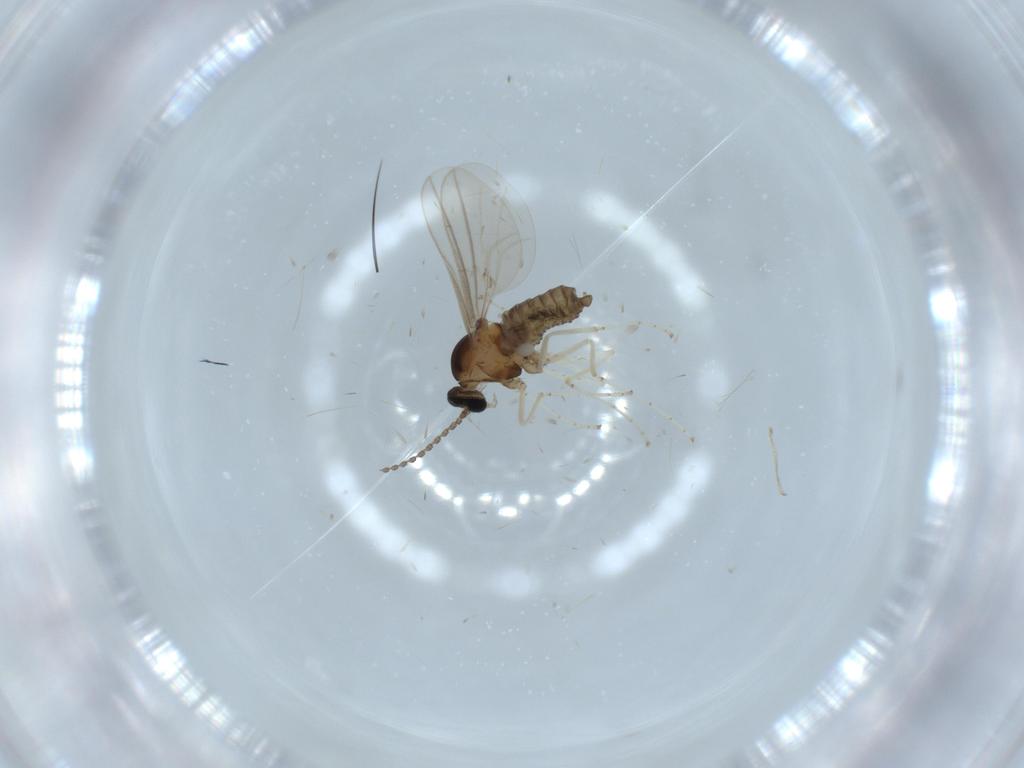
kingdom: Animalia
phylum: Arthropoda
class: Insecta
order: Diptera
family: Cecidomyiidae
